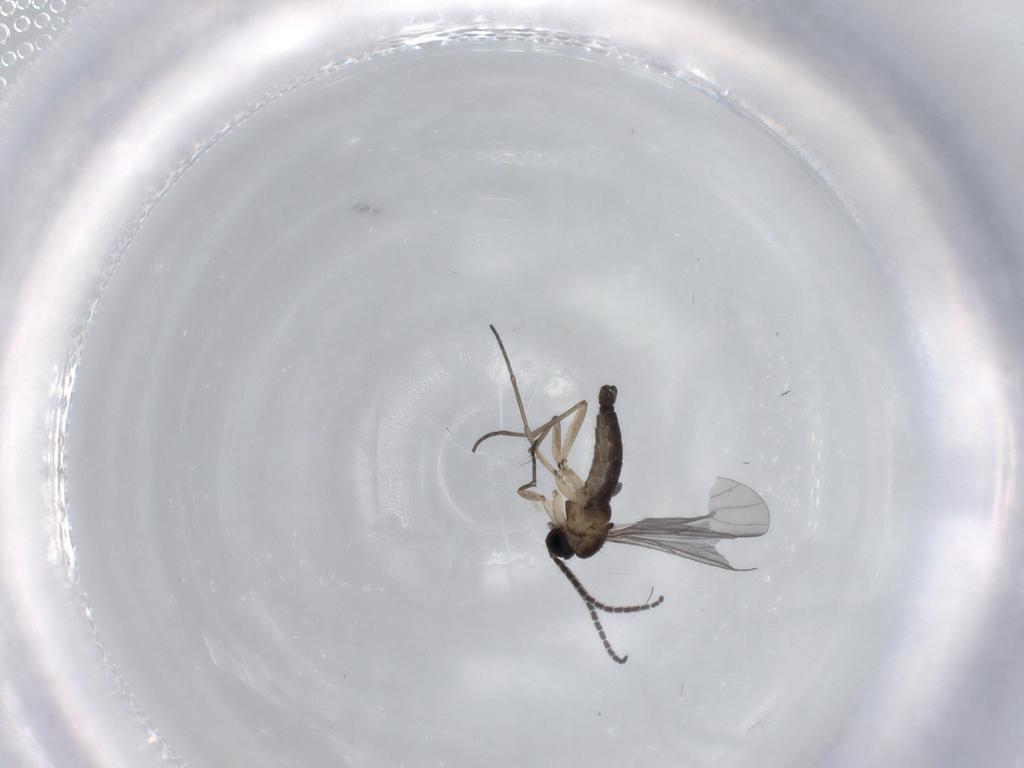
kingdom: Animalia
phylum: Arthropoda
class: Insecta
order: Diptera
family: Sciaridae
